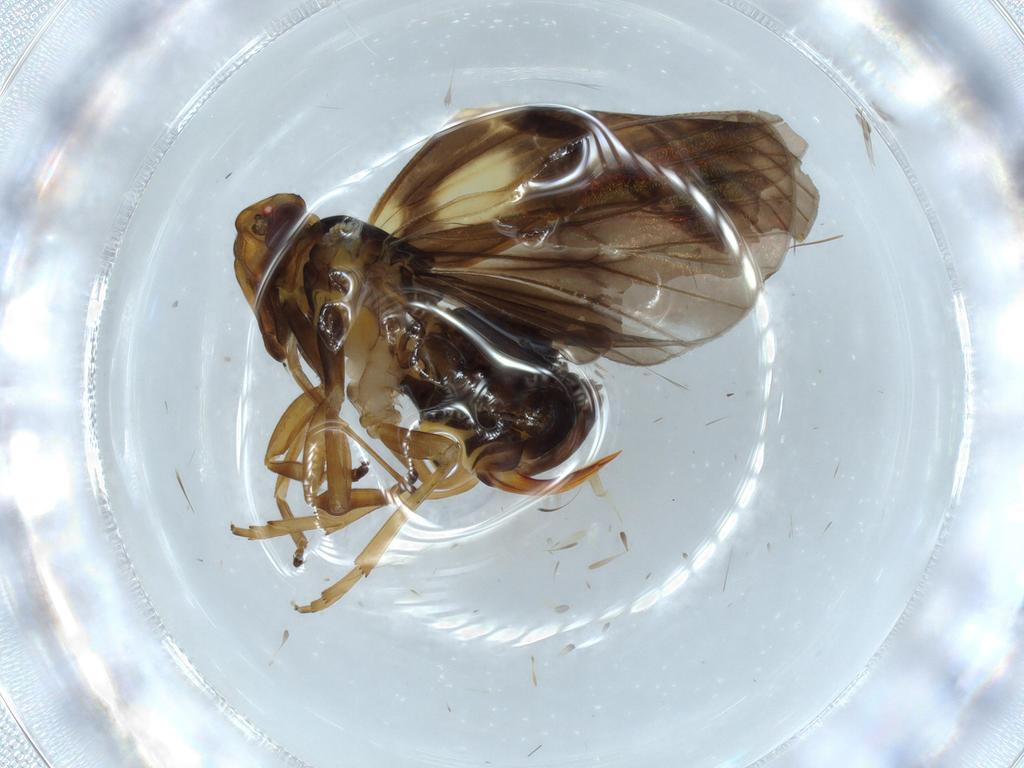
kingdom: Animalia
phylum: Arthropoda
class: Insecta
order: Hemiptera
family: Cixiidae
